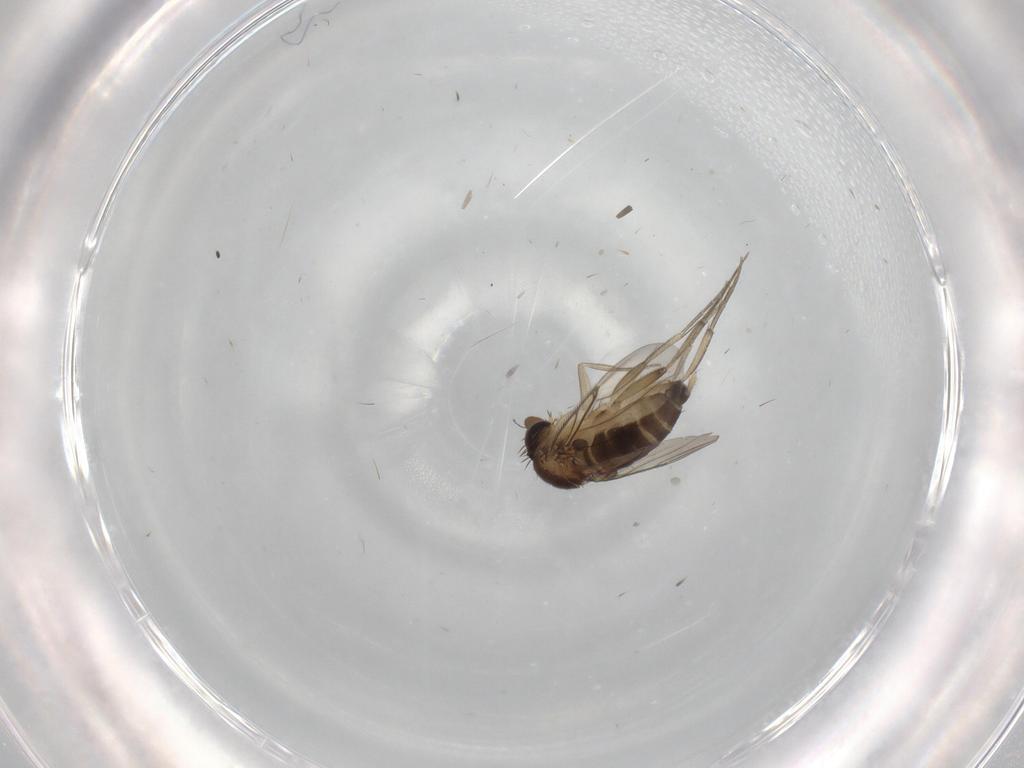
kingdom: Animalia
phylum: Arthropoda
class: Insecta
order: Diptera
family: Phoridae
